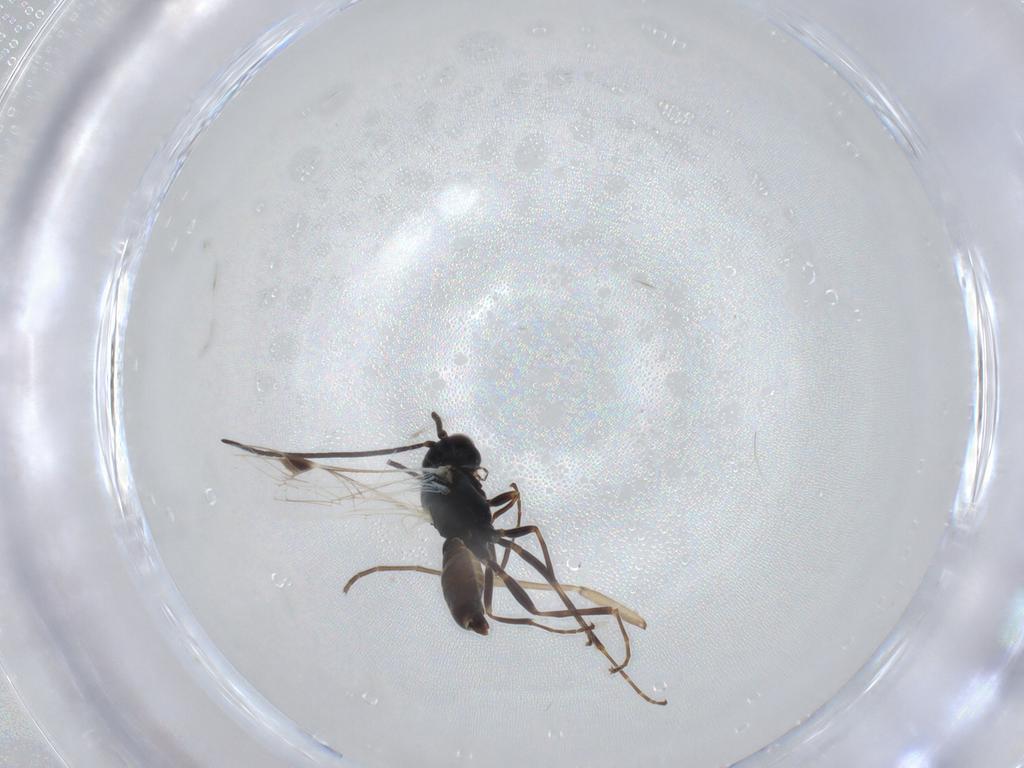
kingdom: Animalia
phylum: Arthropoda
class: Insecta
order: Hymenoptera
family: Ichneumonidae
